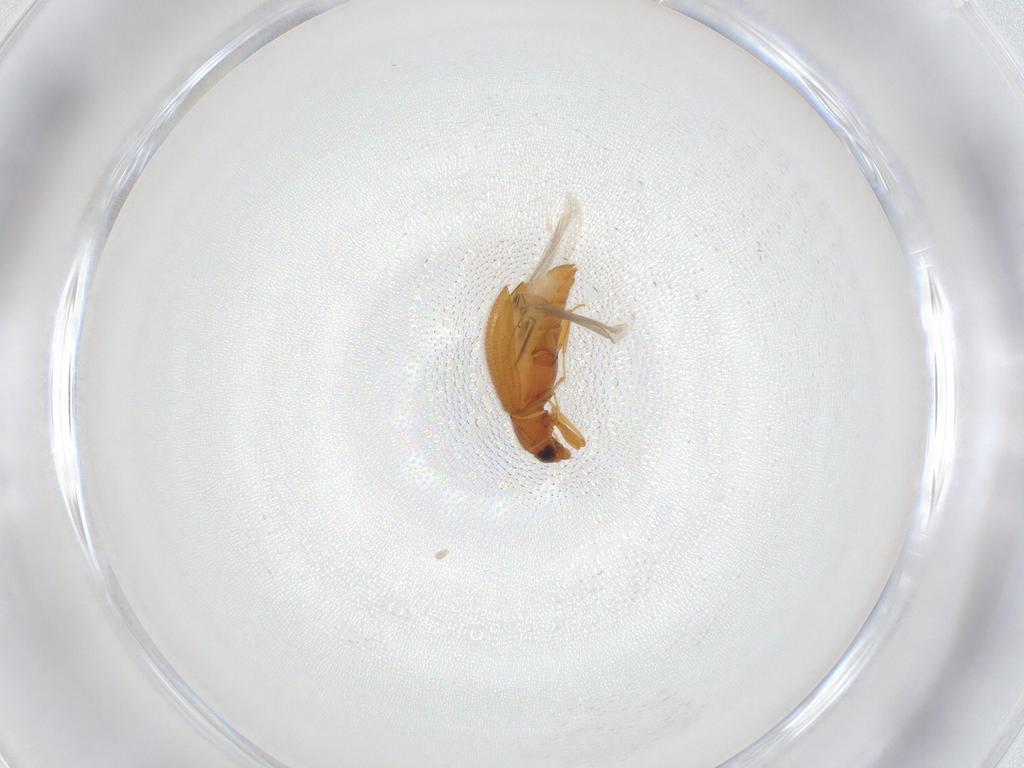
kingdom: Animalia
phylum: Arthropoda
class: Insecta
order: Coleoptera
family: Latridiidae
